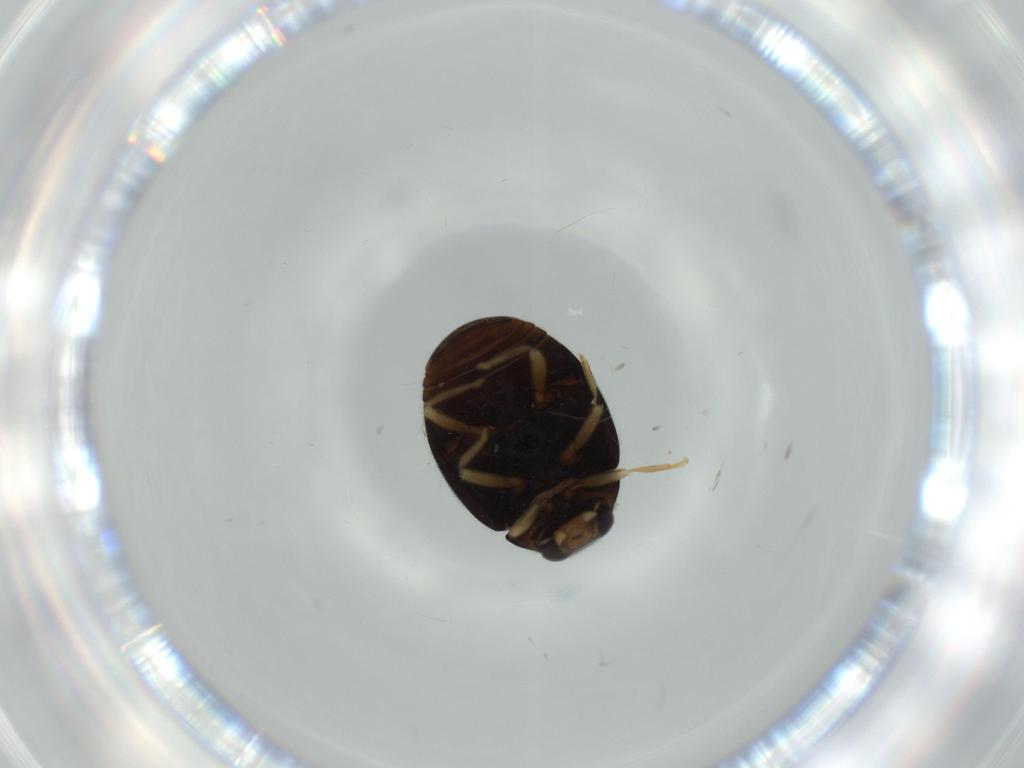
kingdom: Animalia
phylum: Arthropoda
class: Insecta
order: Coleoptera
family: Coccinellidae
